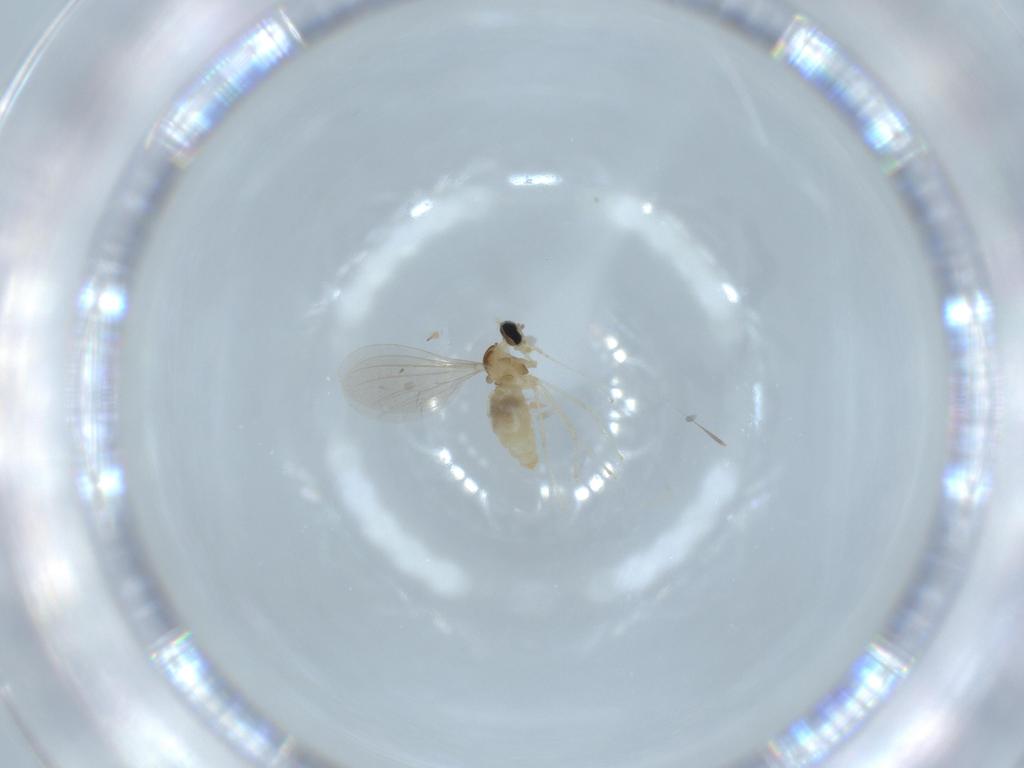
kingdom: Animalia
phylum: Arthropoda
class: Insecta
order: Diptera
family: Cecidomyiidae
